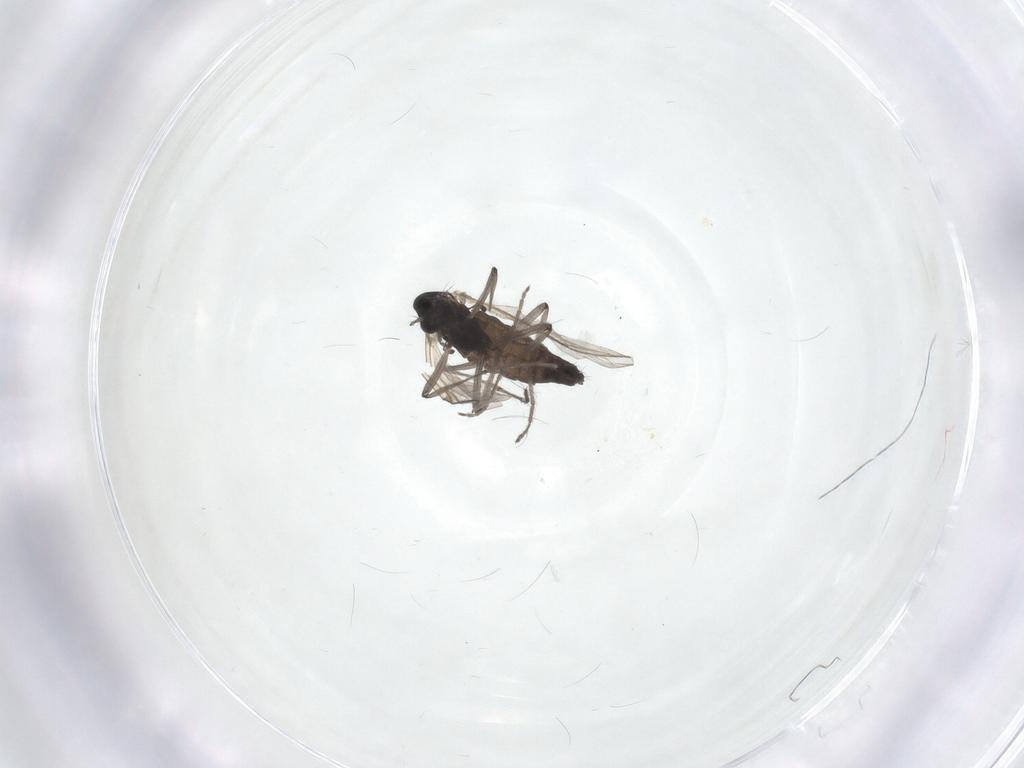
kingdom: Animalia
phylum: Arthropoda
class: Insecta
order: Diptera
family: Chironomidae
